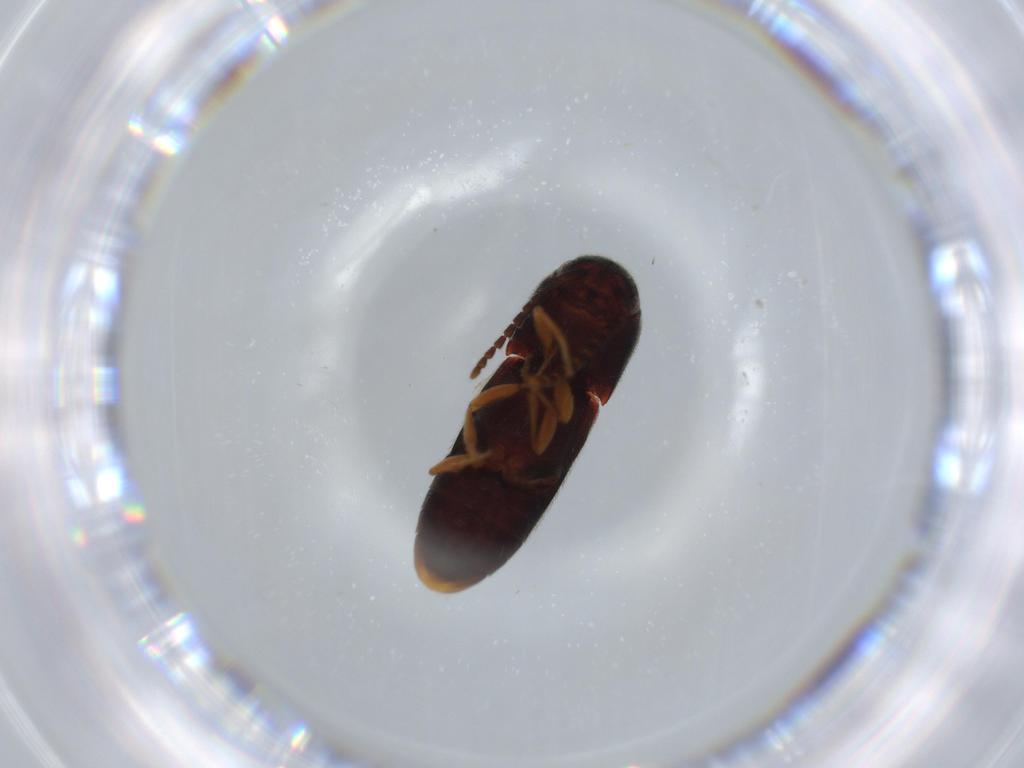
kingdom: Animalia
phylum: Arthropoda
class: Insecta
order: Coleoptera
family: Chrysomelidae
